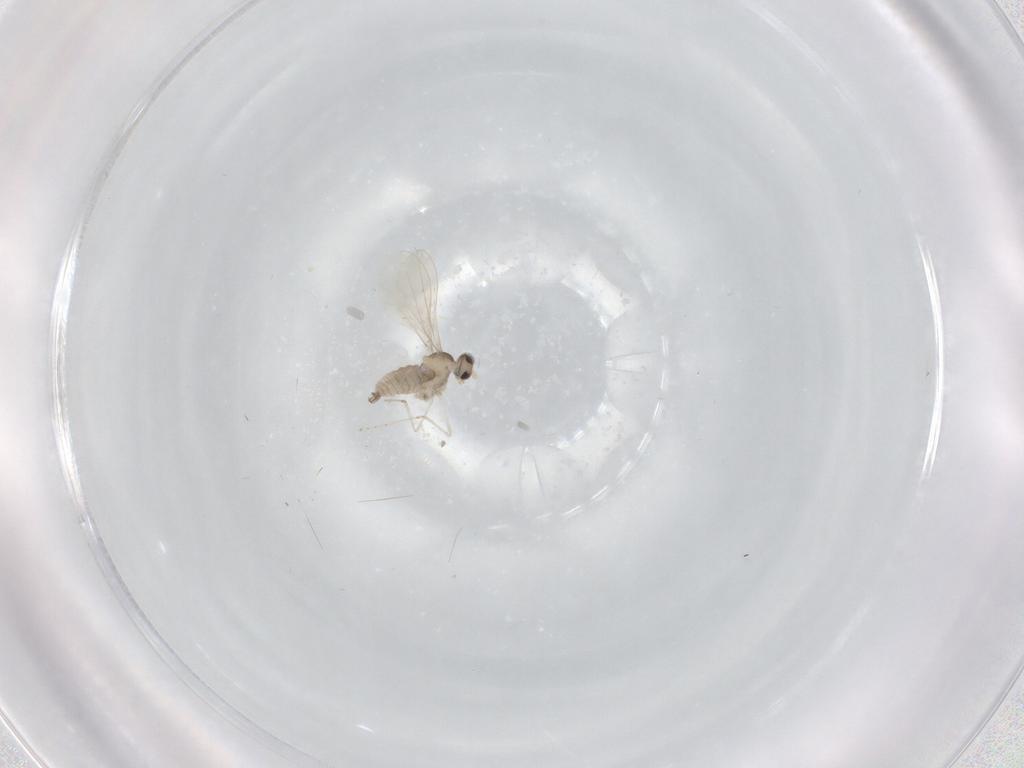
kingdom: Animalia
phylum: Arthropoda
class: Insecta
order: Diptera
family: Cecidomyiidae
